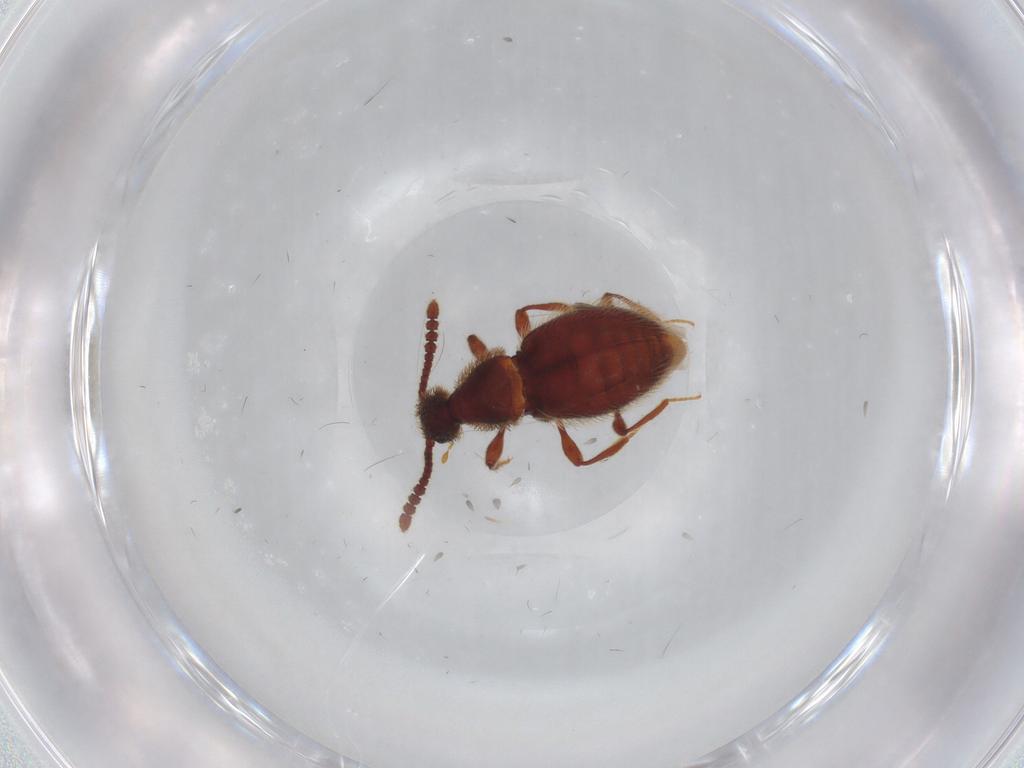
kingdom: Animalia
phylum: Arthropoda
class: Insecta
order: Coleoptera
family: Staphylinidae
